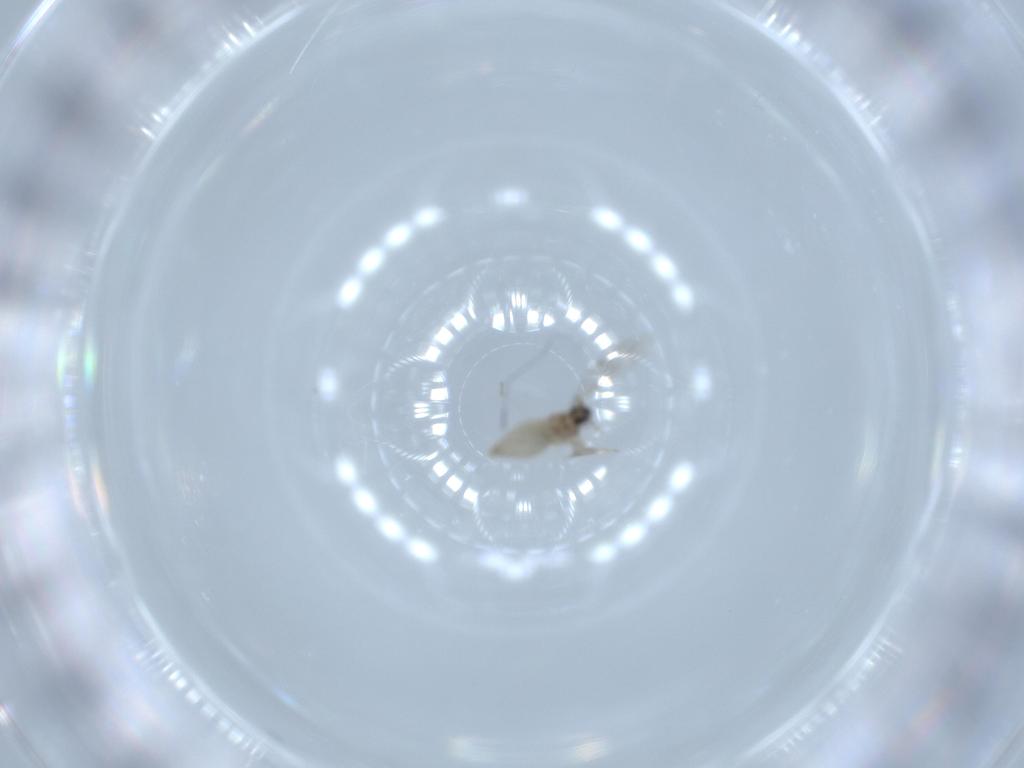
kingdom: Animalia
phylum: Arthropoda
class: Insecta
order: Diptera
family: Cecidomyiidae
